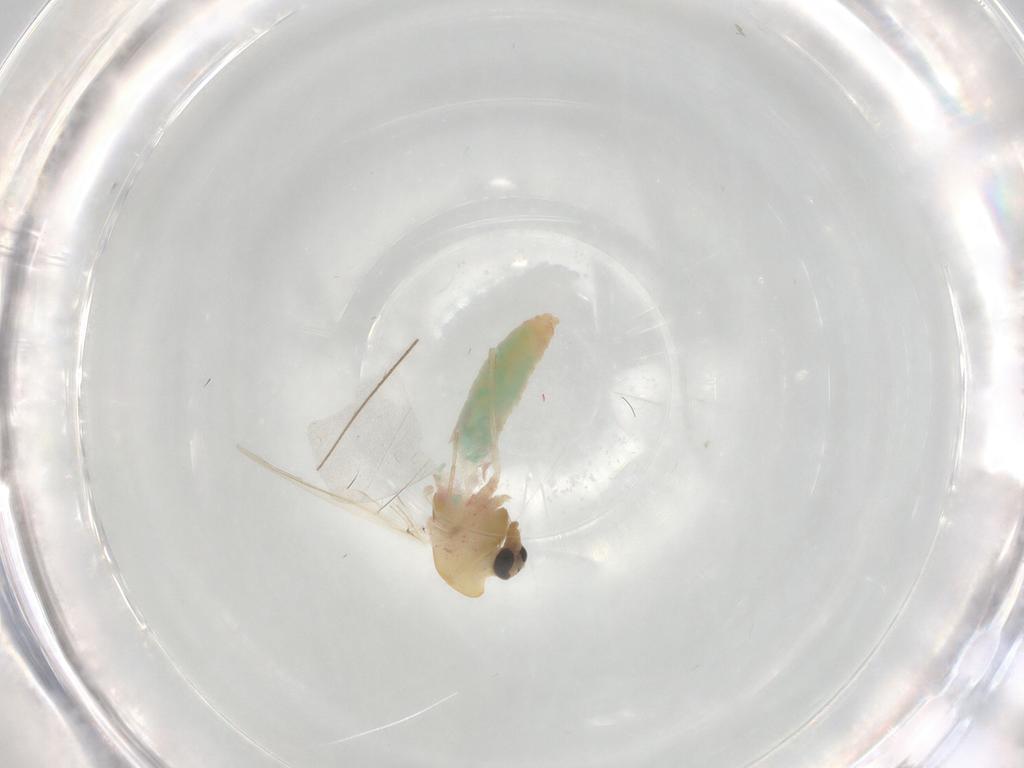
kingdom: Animalia
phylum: Arthropoda
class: Insecta
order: Diptera
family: Chironomidae
